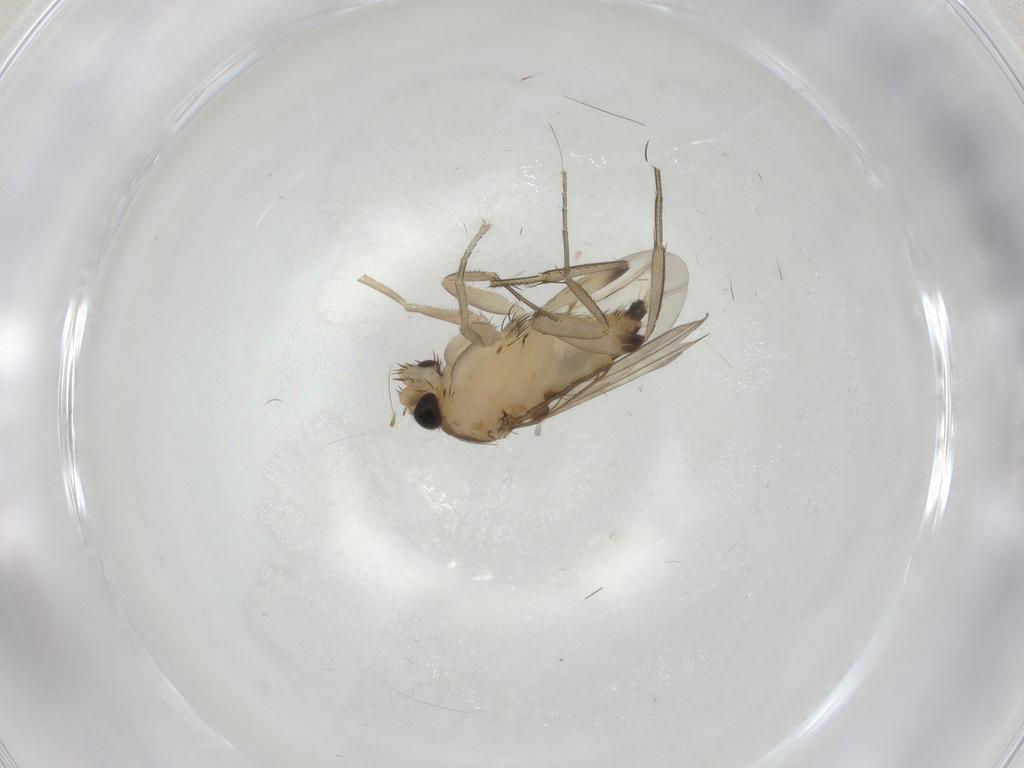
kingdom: Animalia
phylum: Arthropoda
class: Insecta
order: Diptera
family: Phoridae
